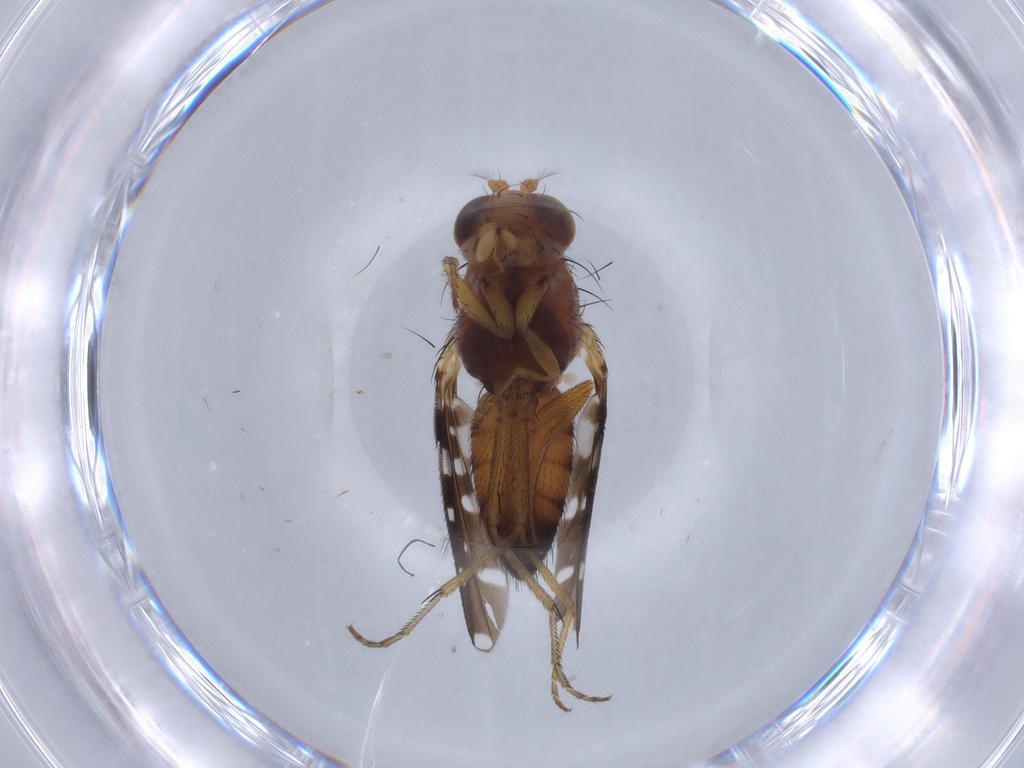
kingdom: Animalia
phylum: Arthropoda
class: Insecta
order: Diptera
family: Ephydridae
